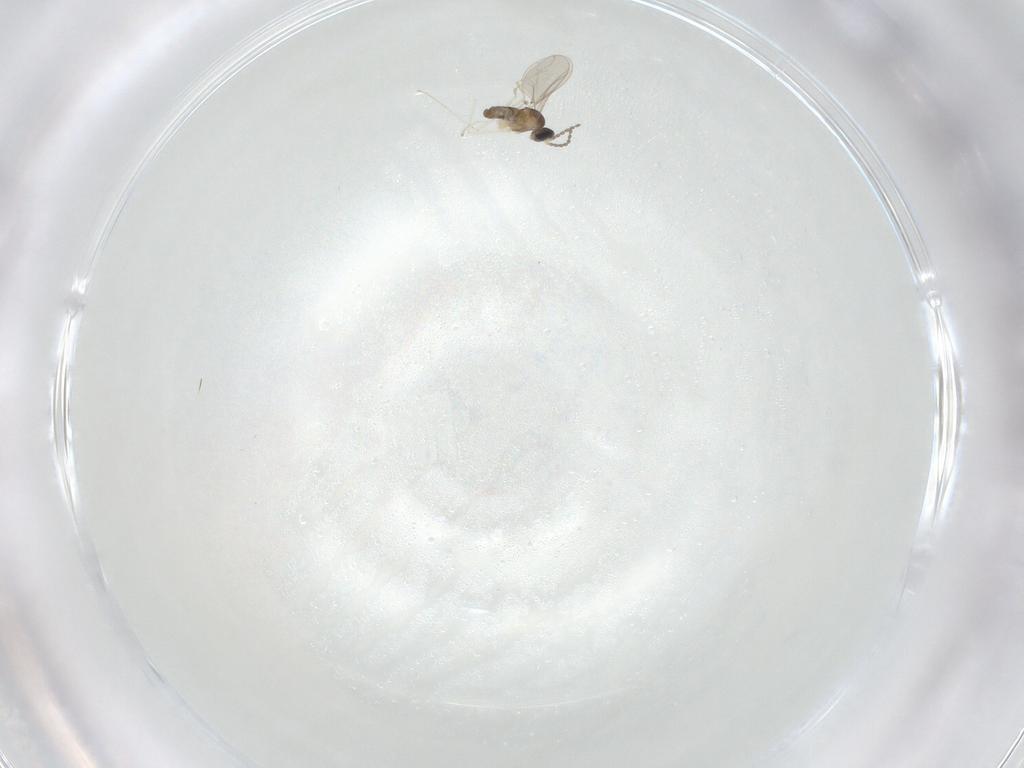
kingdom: Animalia
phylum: Arthropoda
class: Insecta
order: Diptera
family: Cecidomyiidae
